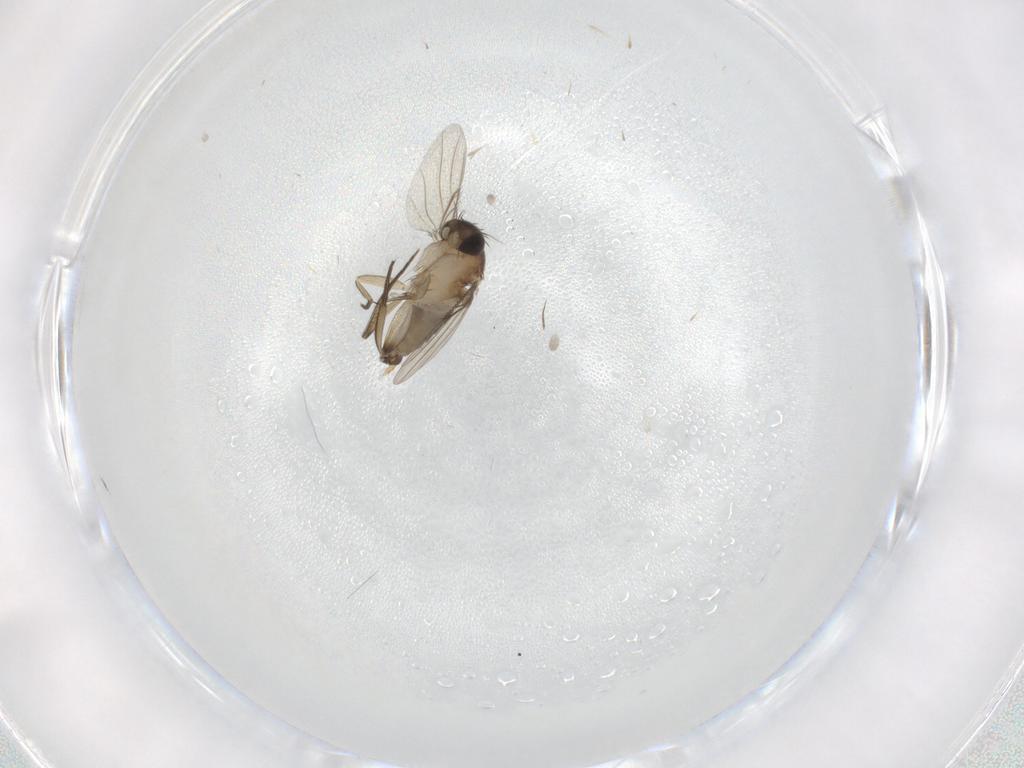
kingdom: Animalia
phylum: Arthropoda
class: Insecta
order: Diptera
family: Phoridae
